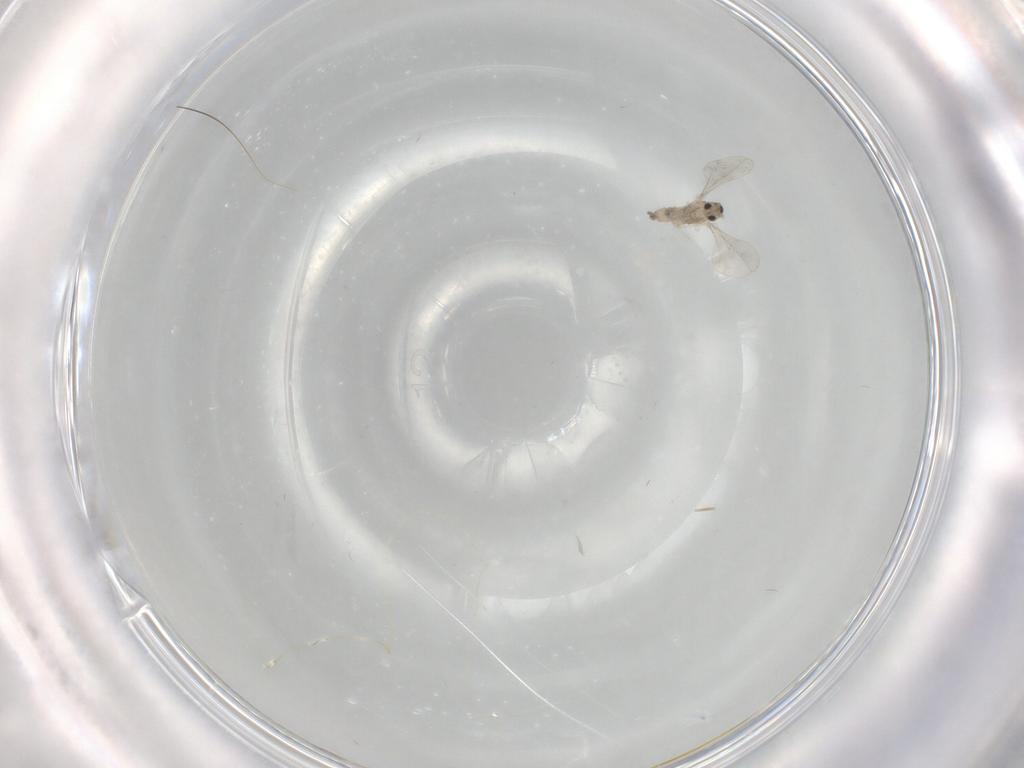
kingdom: Animalia
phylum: Arthropoda
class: Insecta
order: Diptera
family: Cecidomyiidae
